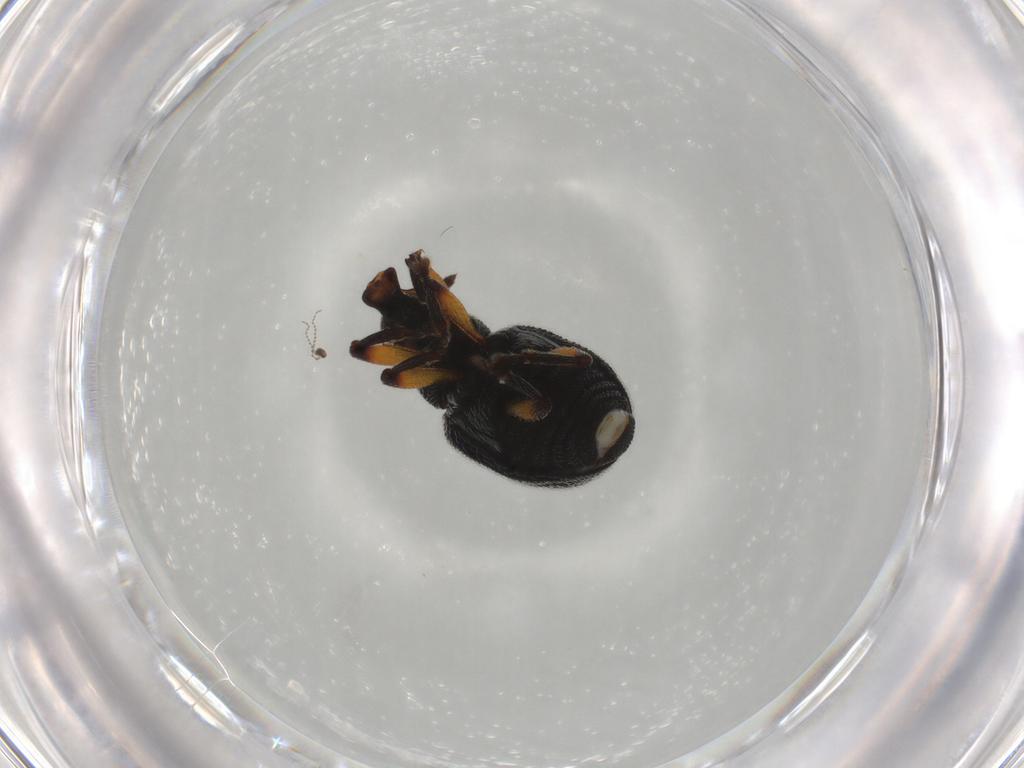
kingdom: Animalia
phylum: Arthropoda
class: Insecta
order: Coleoptera
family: Curculionidae
